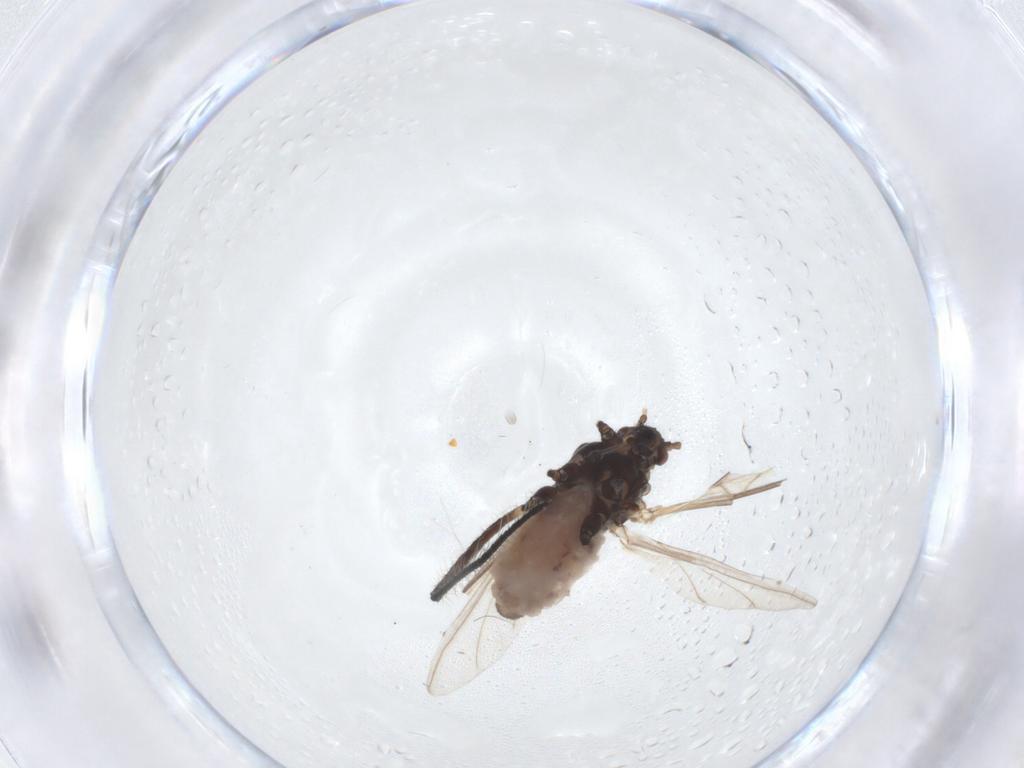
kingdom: Animalia
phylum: Arthropoda
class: Insecta
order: Hemiptera
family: Aphididae
